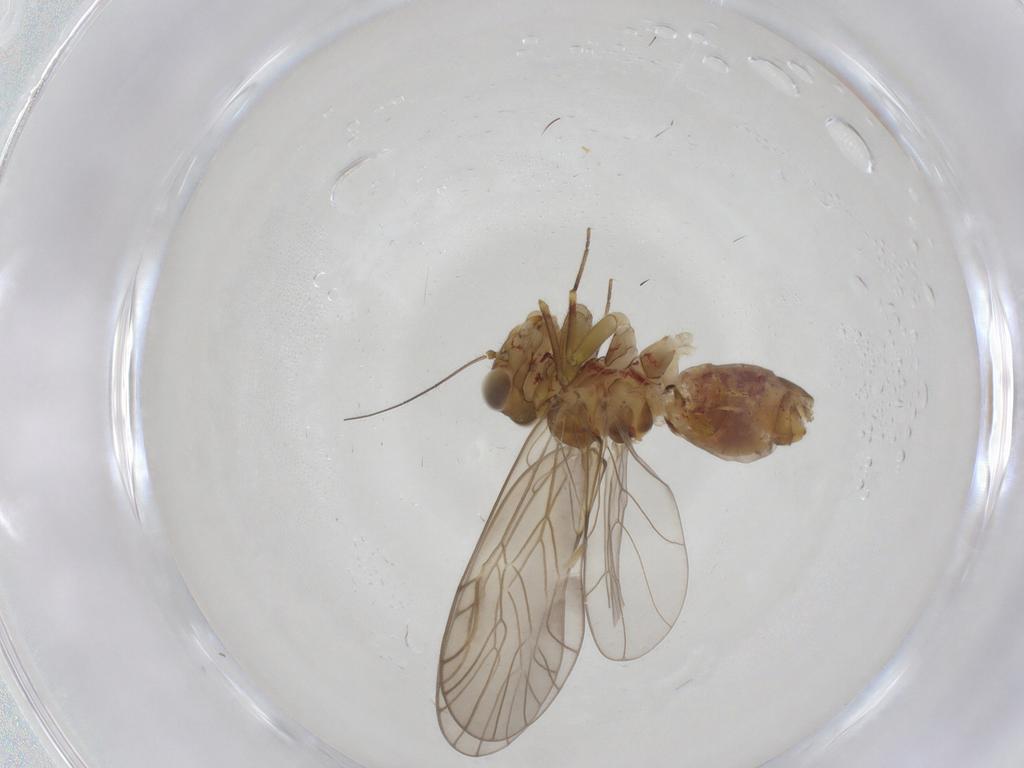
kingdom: Animalia
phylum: Arthropoda
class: Insecta
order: Psocodea
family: Philotarsidae
